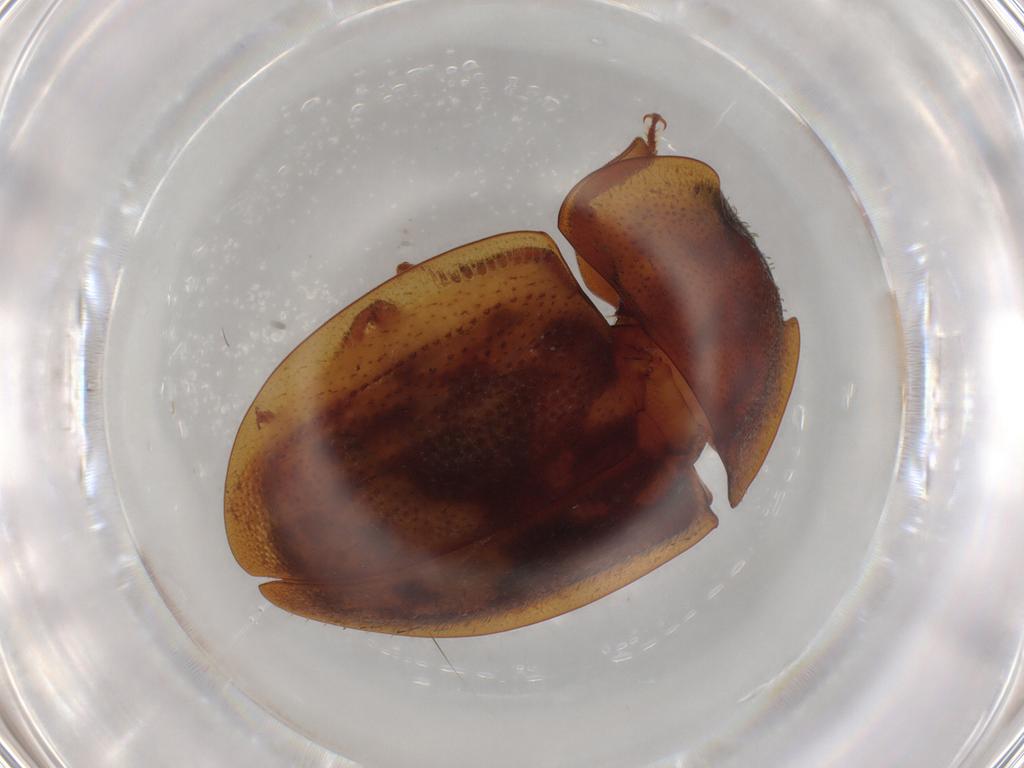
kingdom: Animalia
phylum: Arthropoda
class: Insecta
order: Coleoptera
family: Nitidulidae
